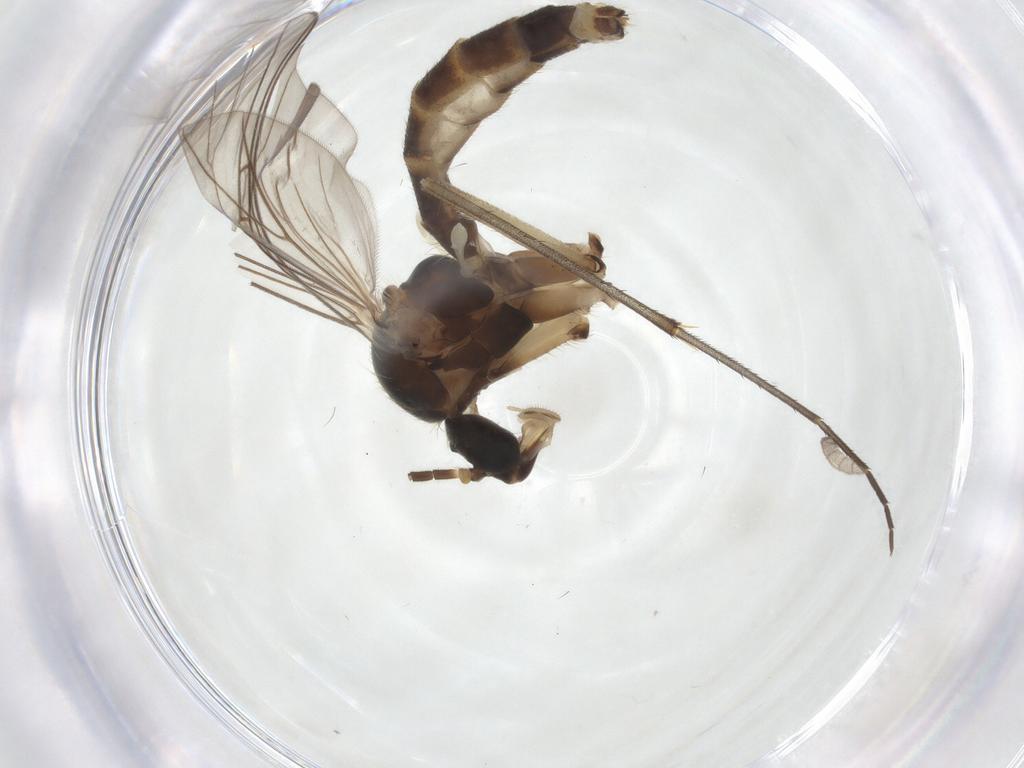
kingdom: Animalia
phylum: Arthropoda
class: Insecta
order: Diptera
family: Mycetophilidae
